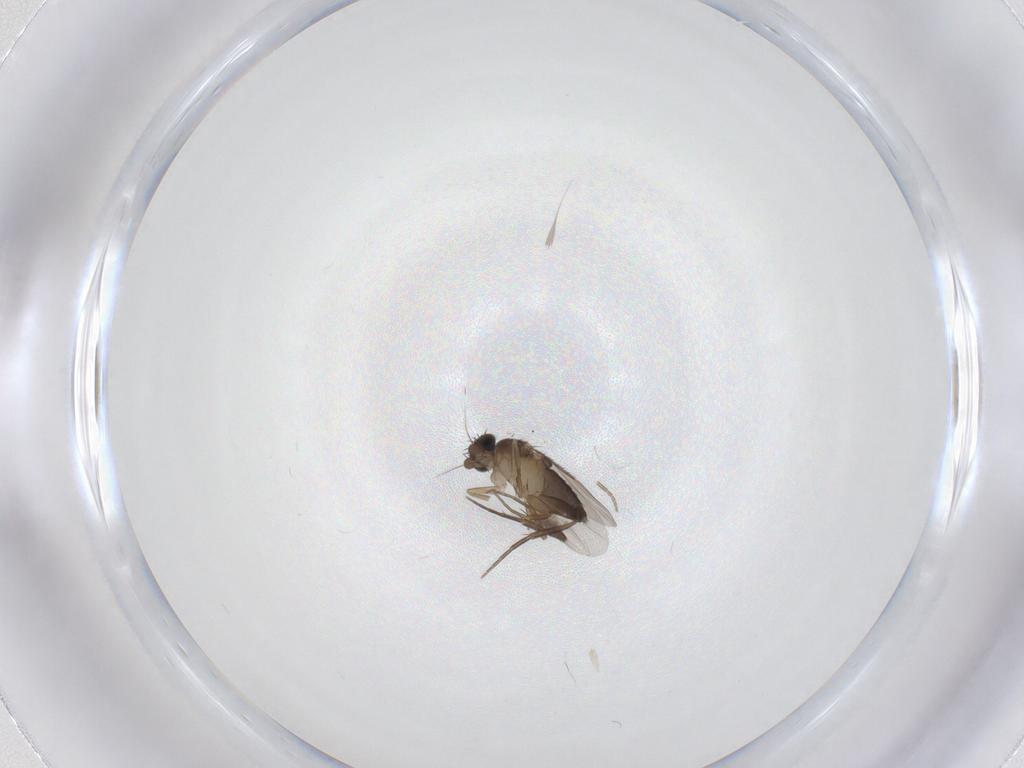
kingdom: Animalia
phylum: Arthropoda
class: Insecta
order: Diptera
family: Phoridae
